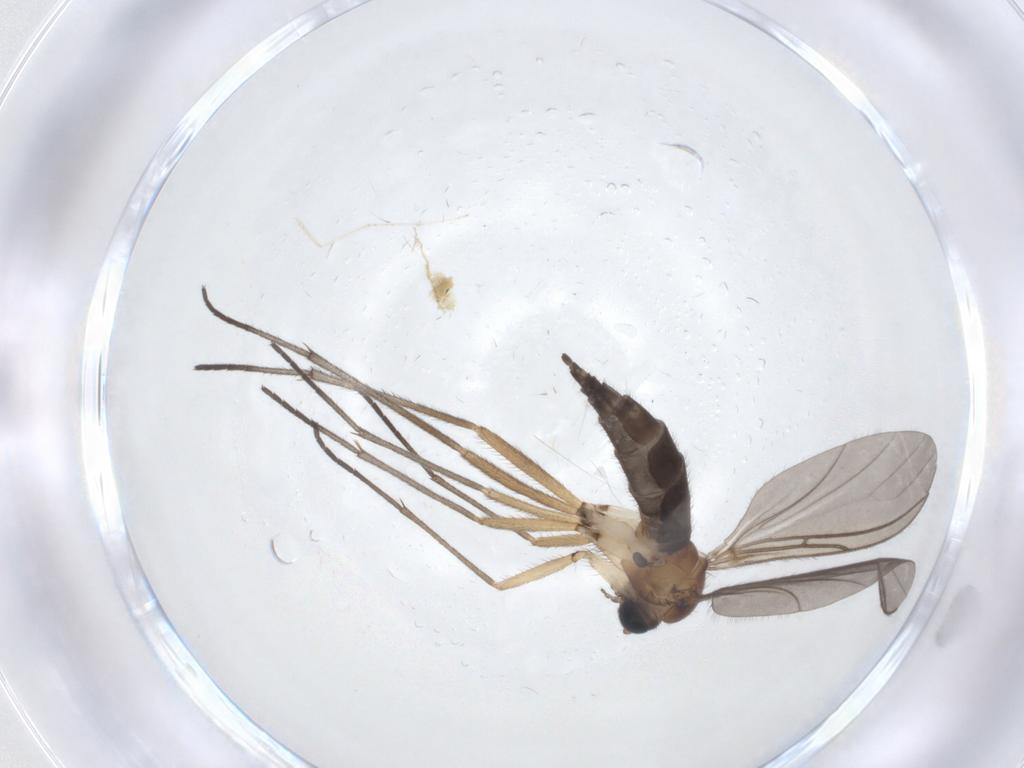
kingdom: Animalia
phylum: Arthropoda
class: Insecta
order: Diptera
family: Sciaridae
